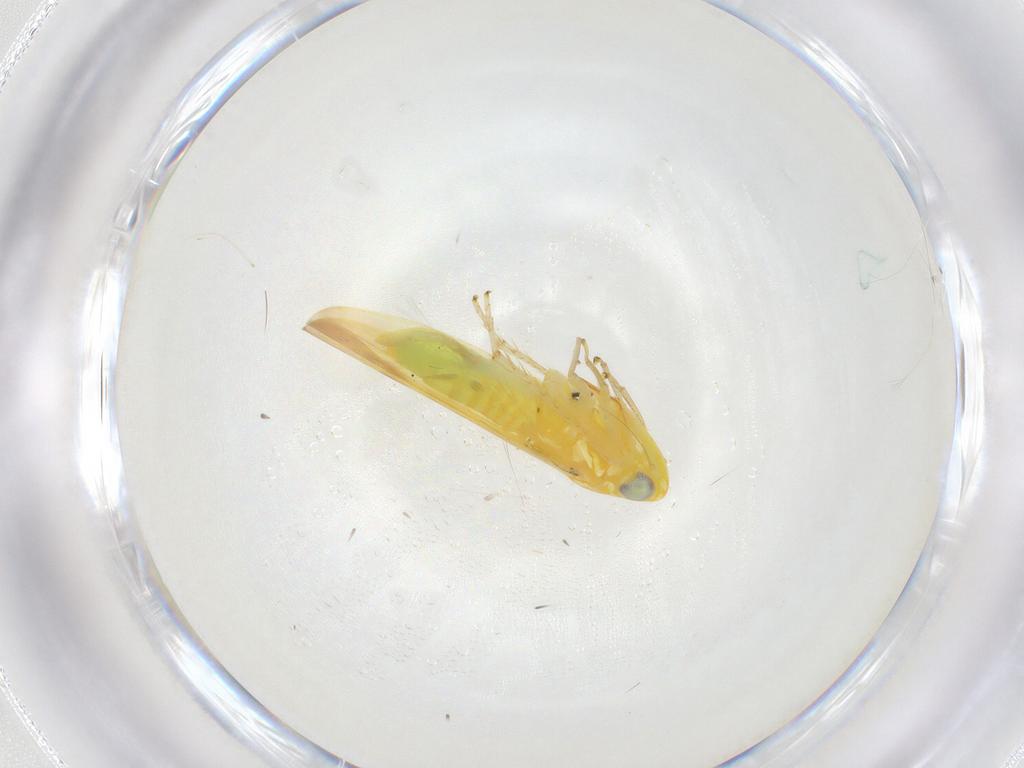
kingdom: Animalia
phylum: Arthropoda
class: Insecta
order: Hemiptera
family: Cicadellidae
